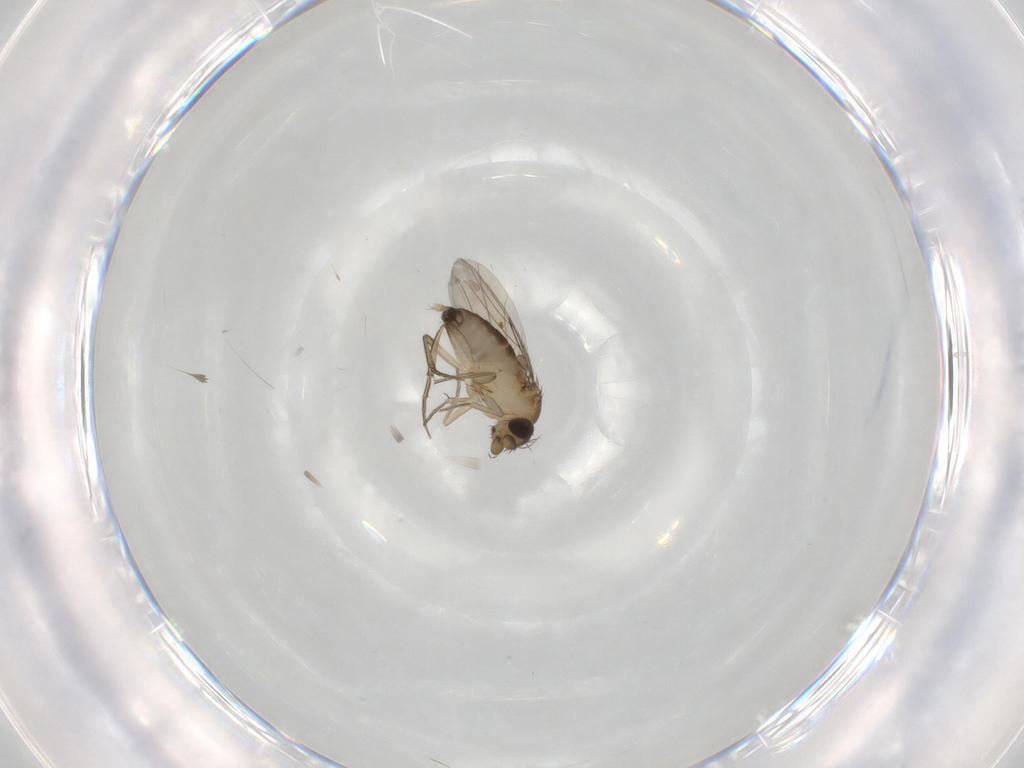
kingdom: Animalia
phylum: Arthropoda
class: Insecta
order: Diptera
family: Phoridae
